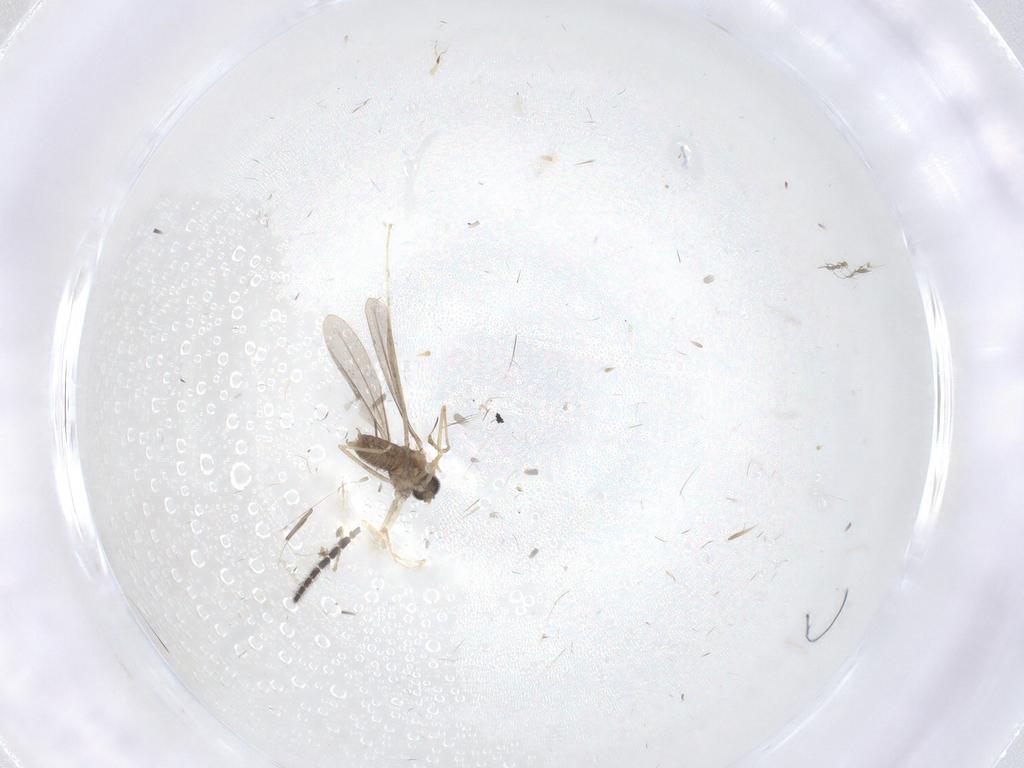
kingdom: Animalia
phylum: Arthropoda
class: Insecta
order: Diptera
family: Cecidomyiidae
